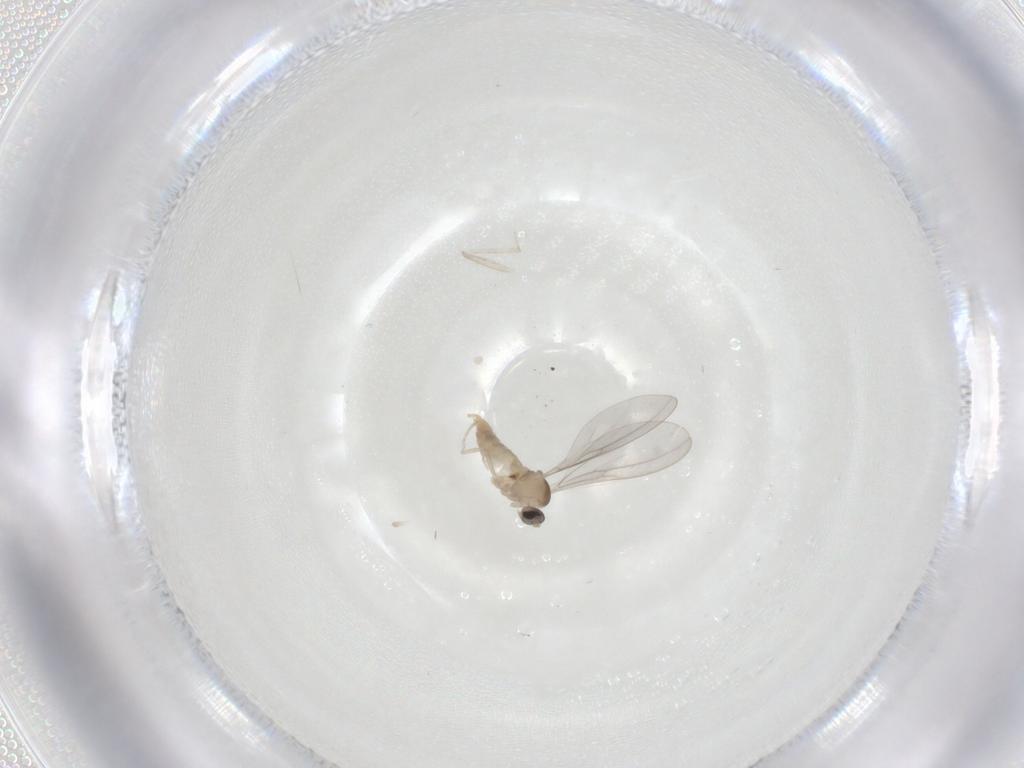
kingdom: Animalia
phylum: Arthropoda
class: Insecta
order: Diptera
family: Cecidomyiidae
